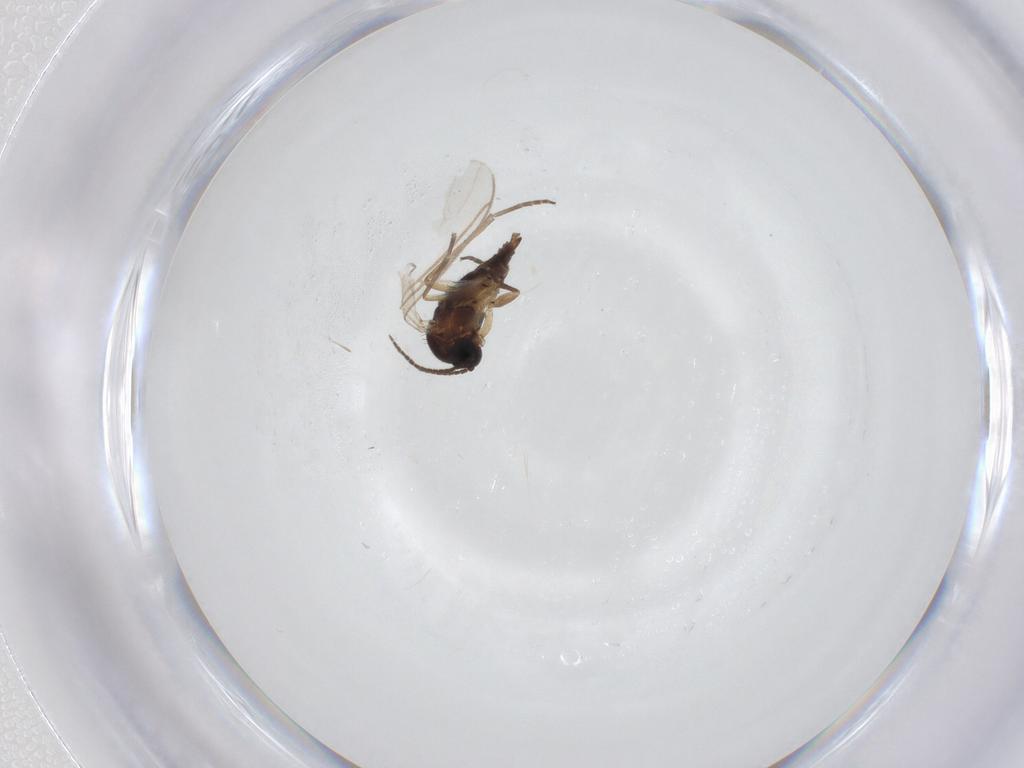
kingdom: Animalia
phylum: Arthropoda
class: Insecta
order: Diptera
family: Sciaridae
